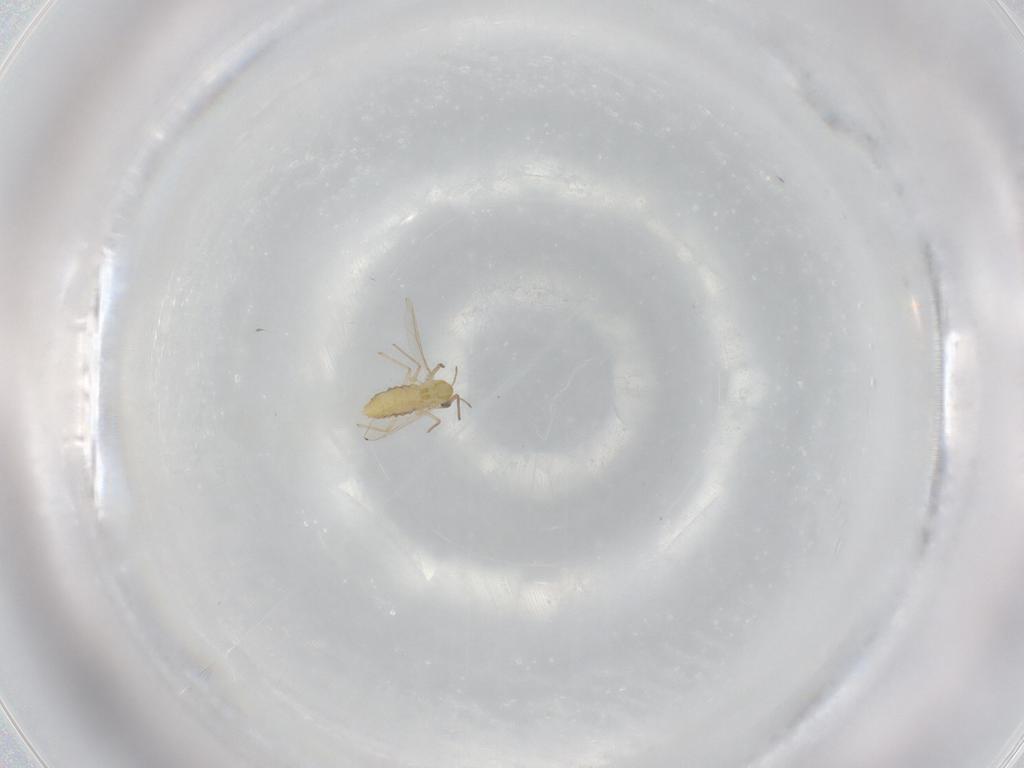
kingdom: Animalia
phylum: Arthropoda
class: Insecta
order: Diptera
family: Chironomidae
